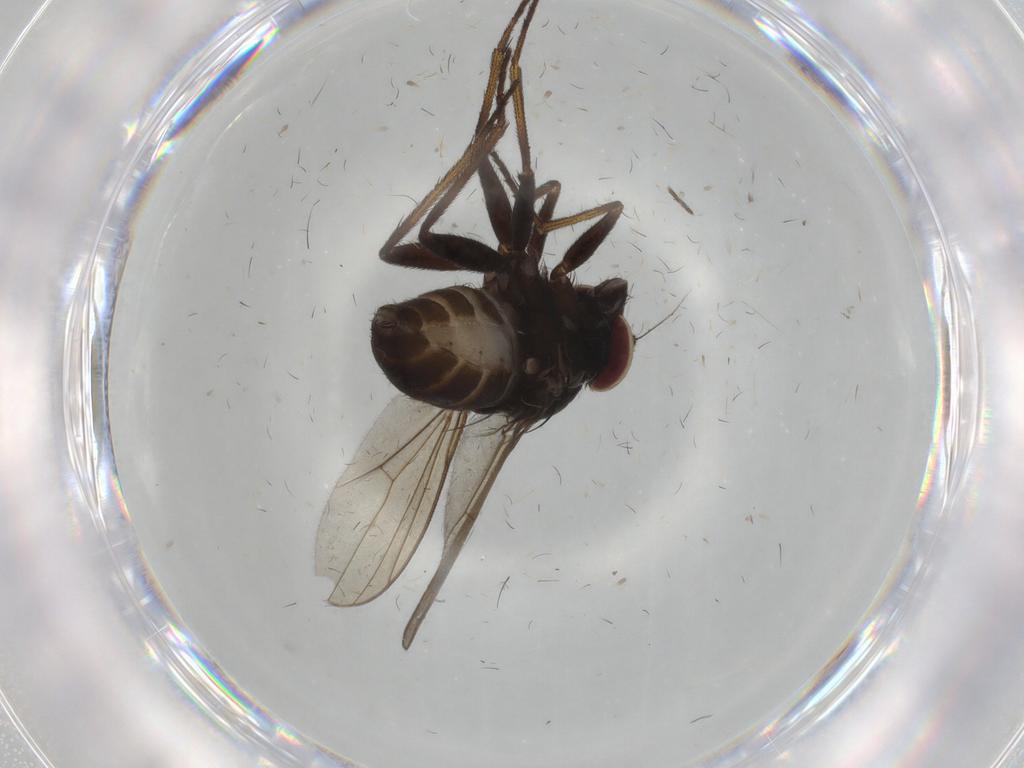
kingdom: Animalia
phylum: Arthropoda
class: Insecta
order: Diptera
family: Dolichopodidae
